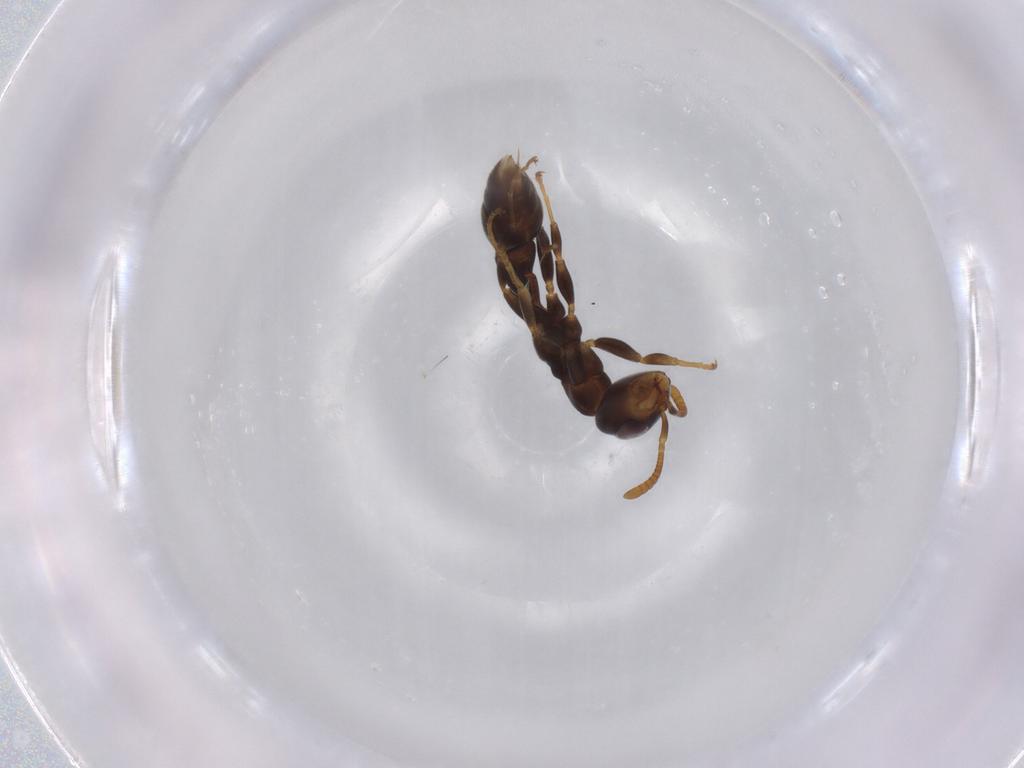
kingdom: Animalia
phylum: Arthropoda
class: Insecta
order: Hymenoptera
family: Formicidae
